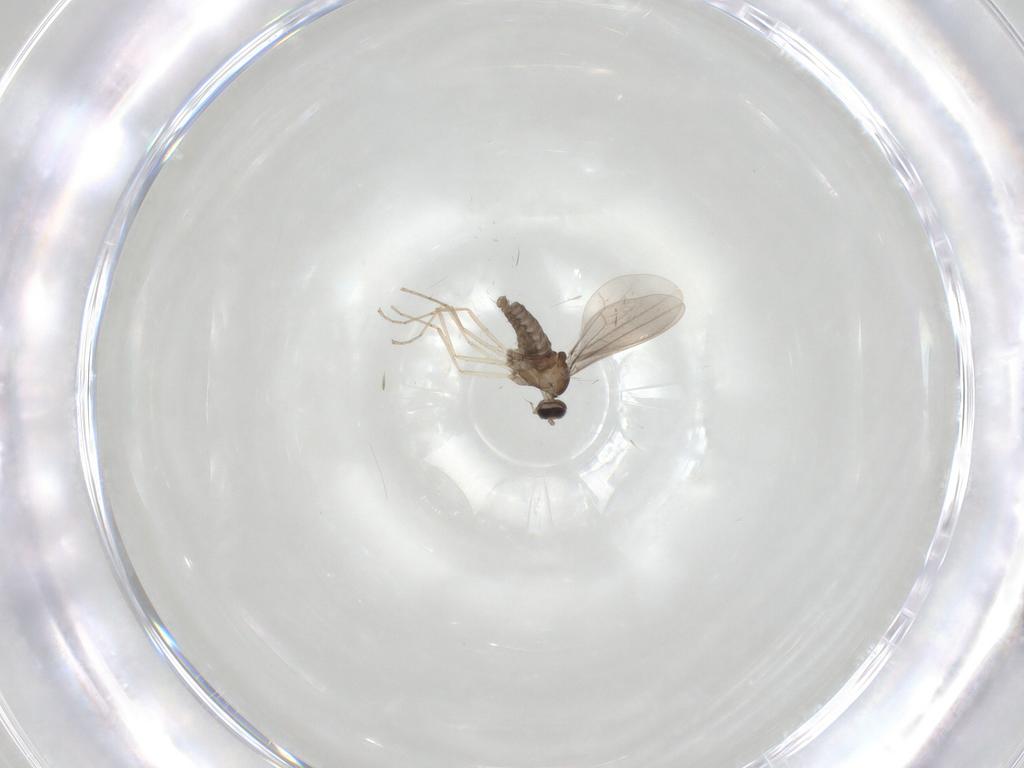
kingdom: Animalia
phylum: Arthropoda
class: Insecta
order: Diptera
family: Cecidomyiidae
